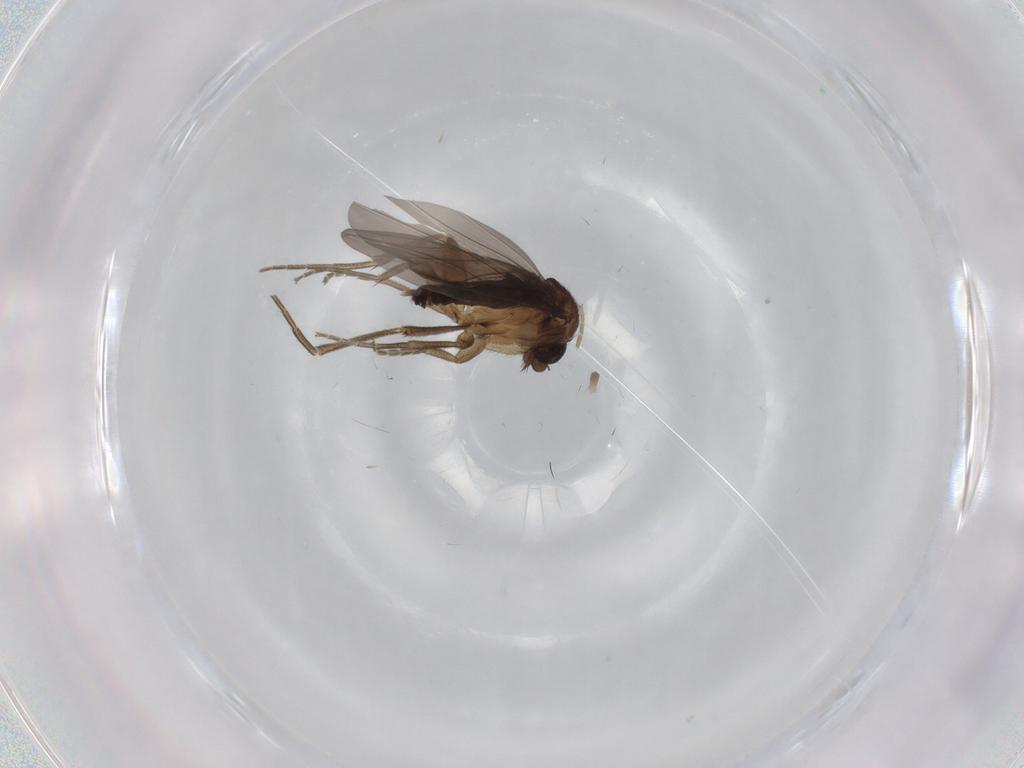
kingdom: Animalia
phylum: Arthropoda
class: Insecta
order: Diptera
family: Phoridae
